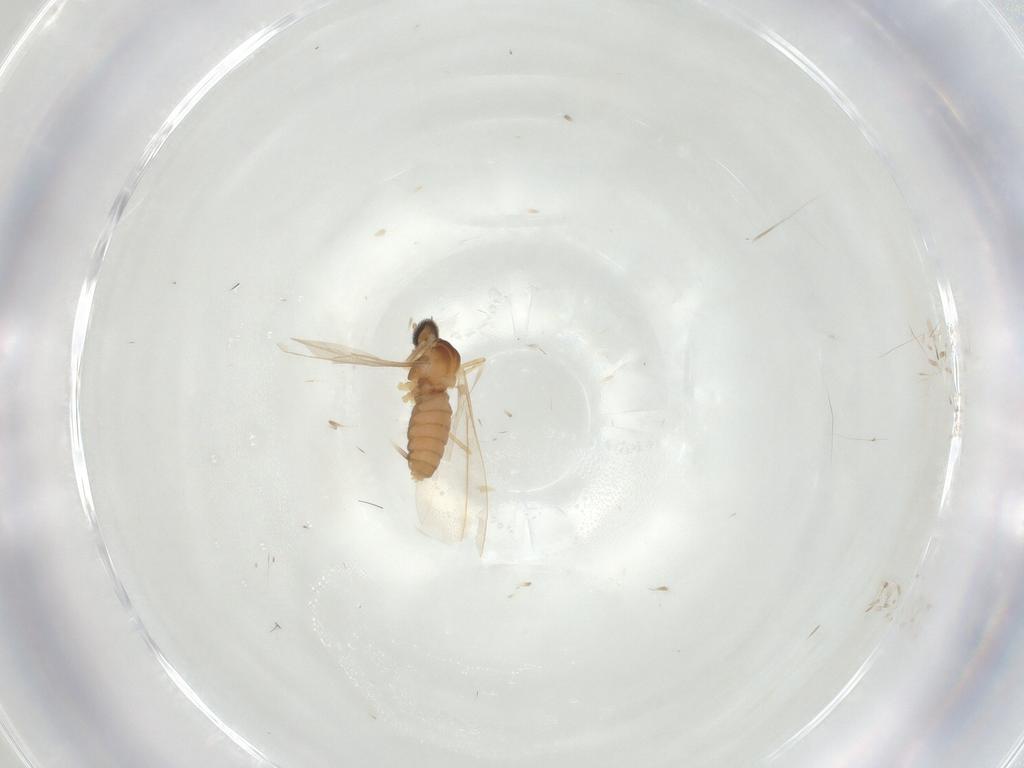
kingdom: Animalia
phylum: Arthropoda
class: Insecta
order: Diptera
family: Cecidomyiidae
